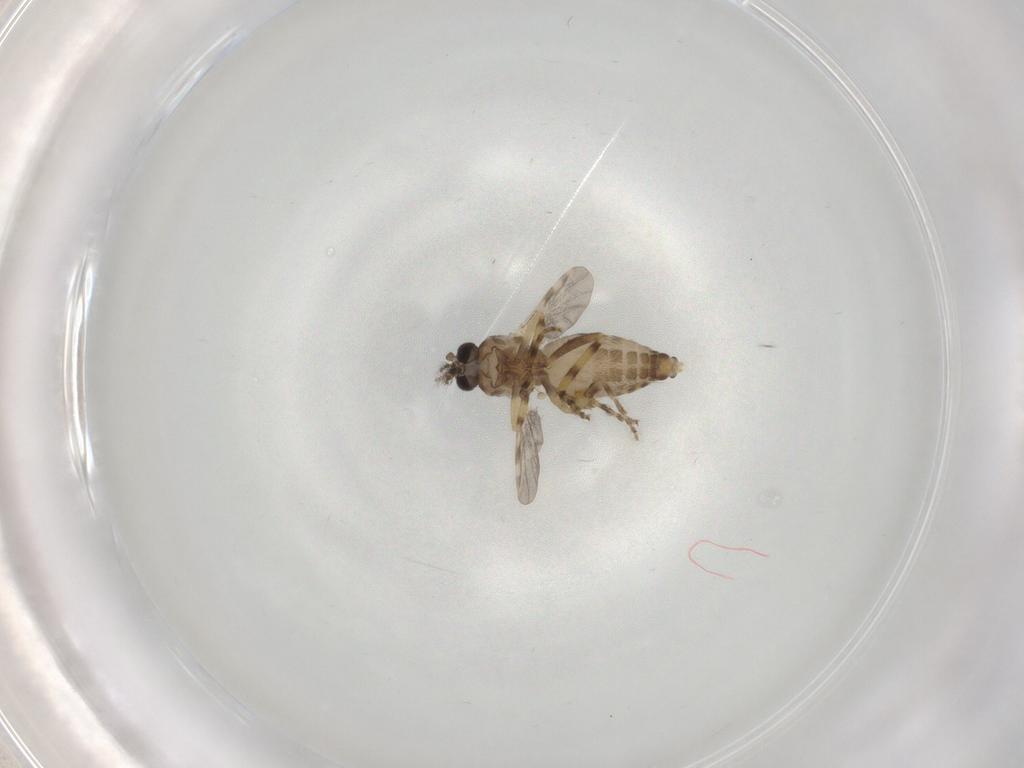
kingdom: Animalia
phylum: Arthropoda
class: Insecta
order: Diptera
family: Ceratopogonidae
